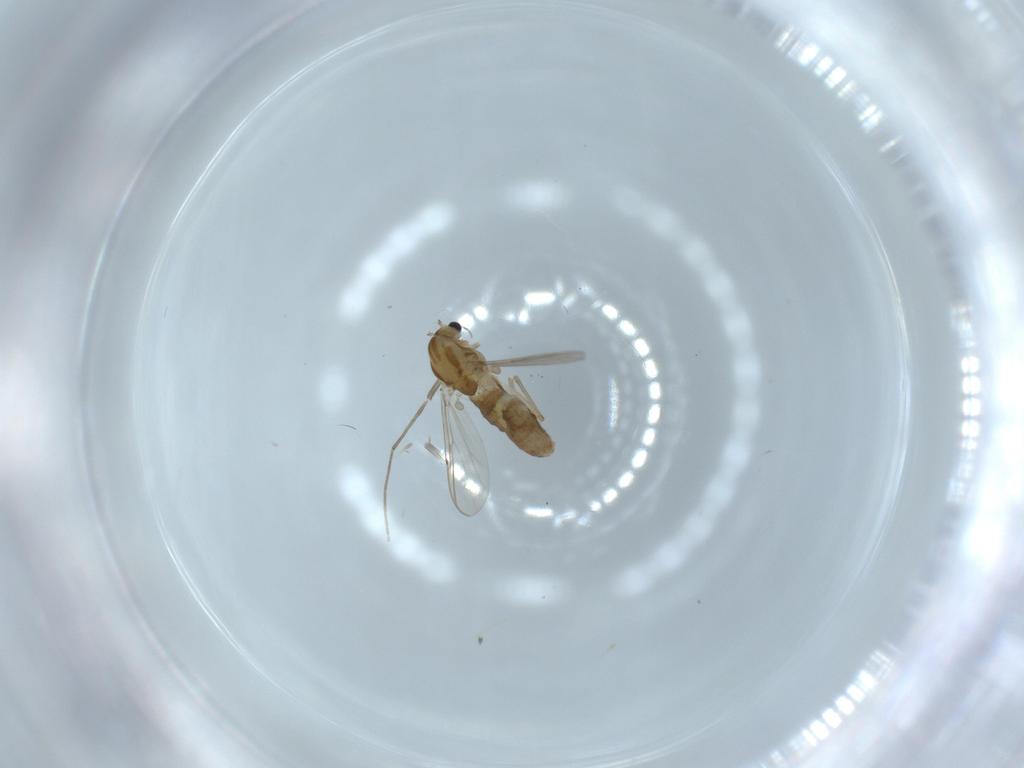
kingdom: Animalia
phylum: Arthropoda
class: Insecta
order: Diptera
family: Chironomidae
